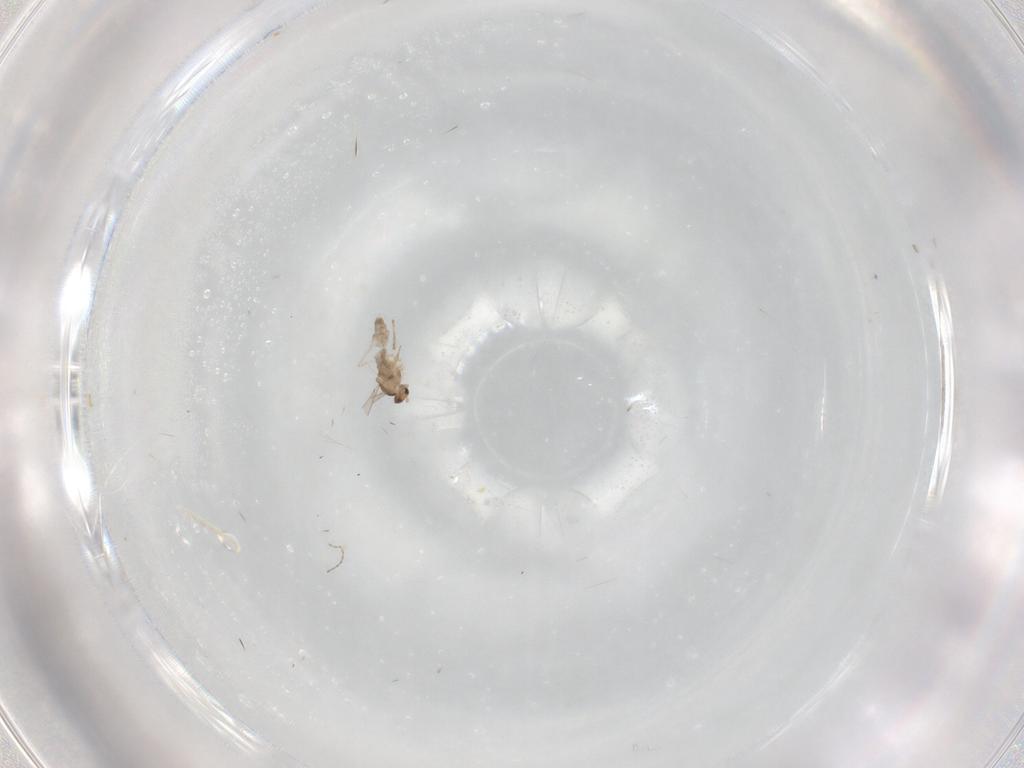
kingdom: Animalia
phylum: Arthropoda
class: Insecta
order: Diptera
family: Cecidomyiidae
